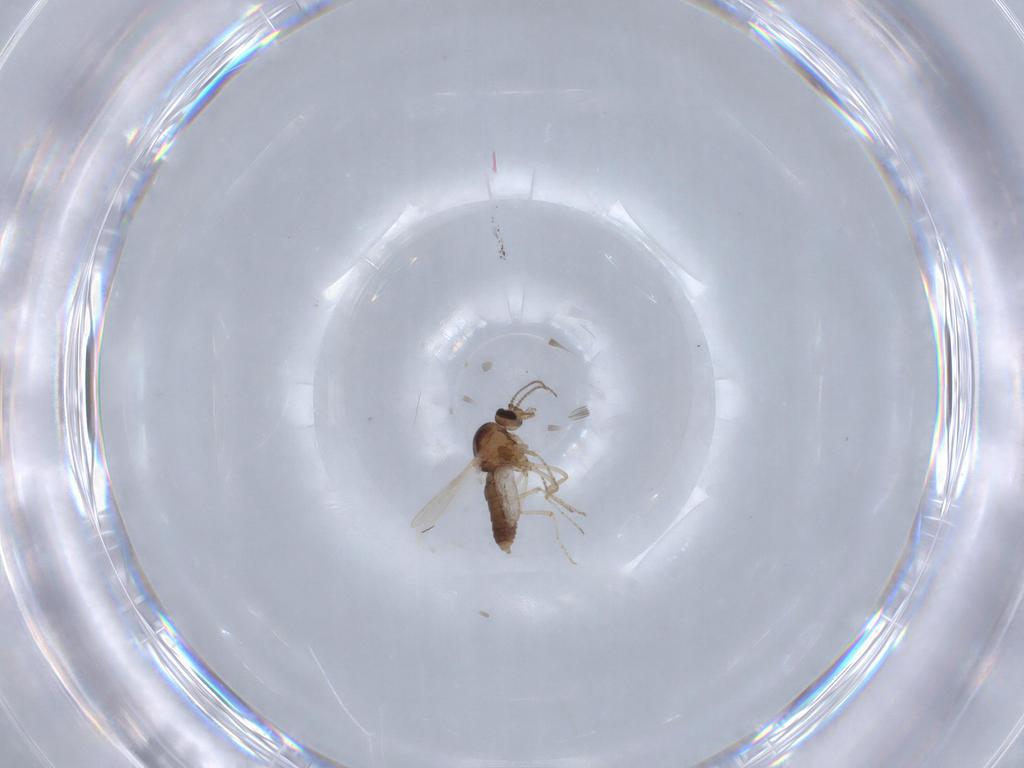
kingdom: Animalia
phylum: Arthropoda
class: Insecta
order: Diptera
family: Ceratopogonidae
